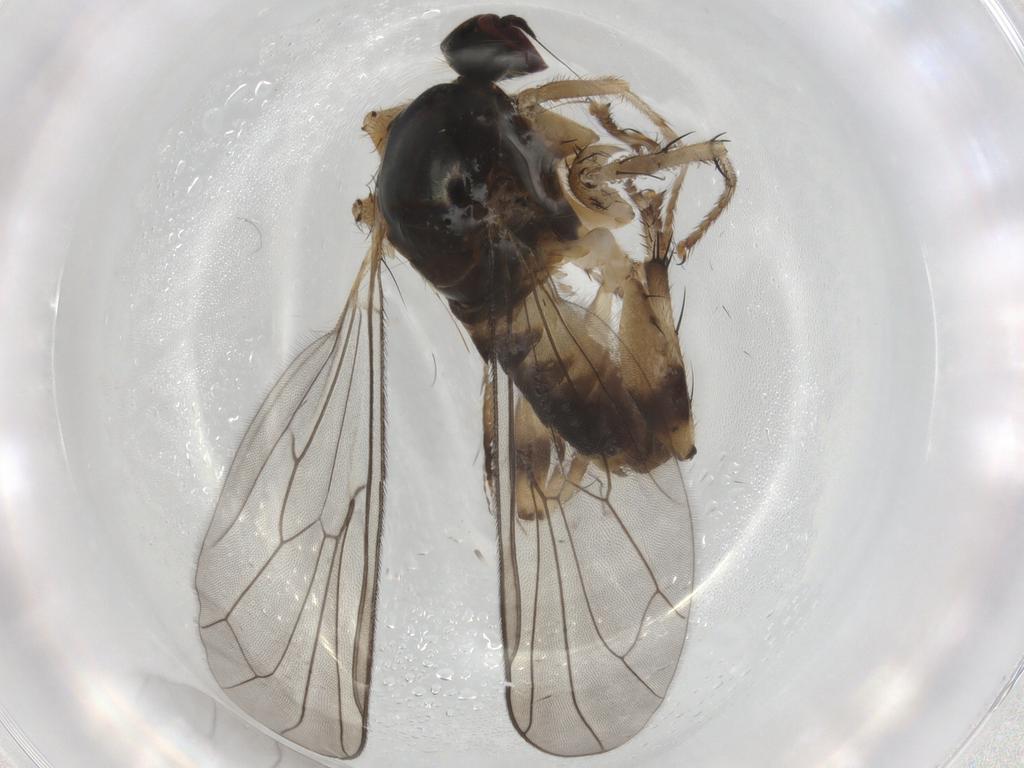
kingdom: Animalia
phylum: Arthropoda
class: Insecta
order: Diptera
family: Hybotidae
